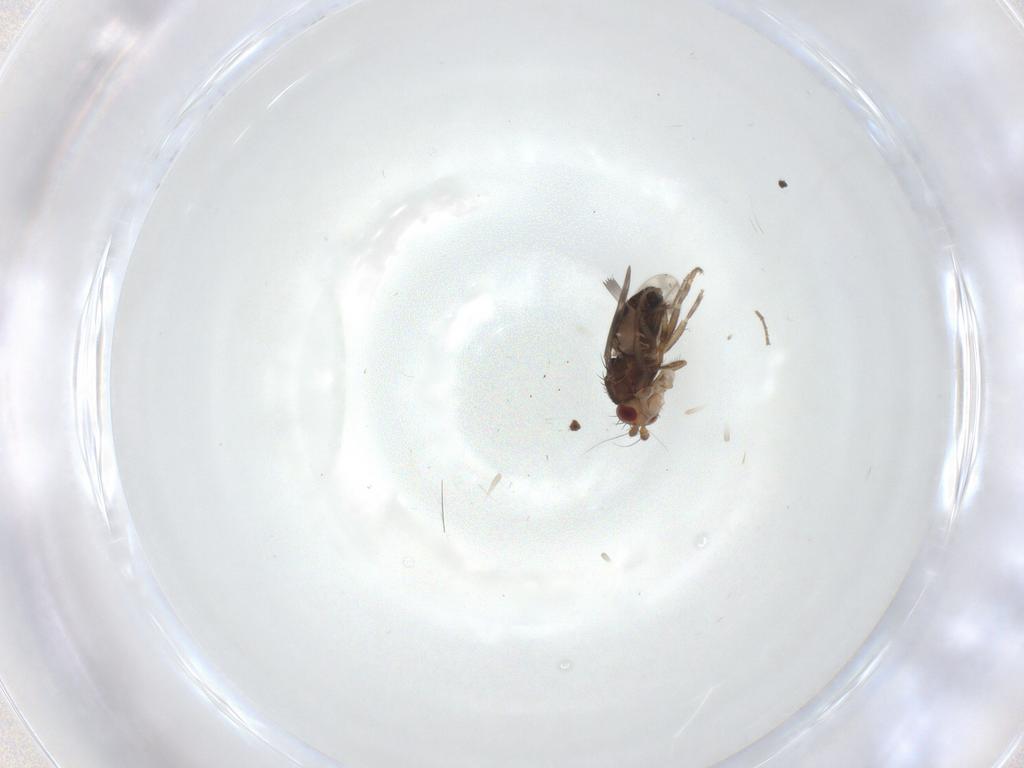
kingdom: Animalia
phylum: Arthropoda
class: Insecta
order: Diptera
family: Sphaeroceridae
